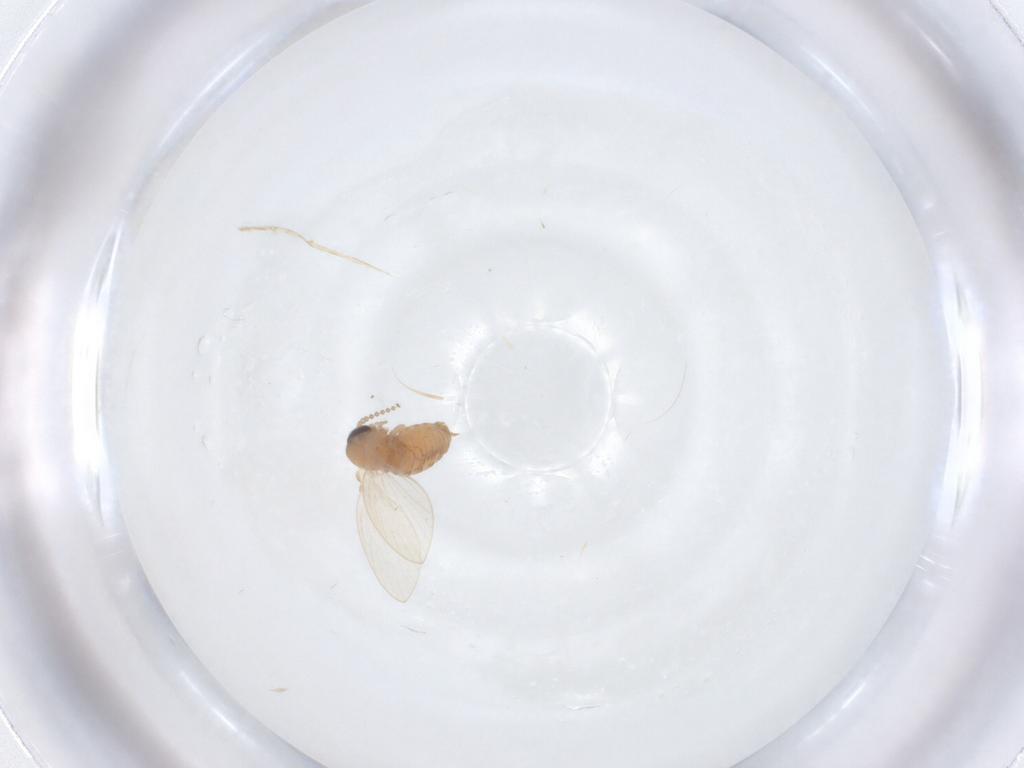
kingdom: Animalia
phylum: Arthropoda
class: Insecta
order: Diptera
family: Psychodidae
